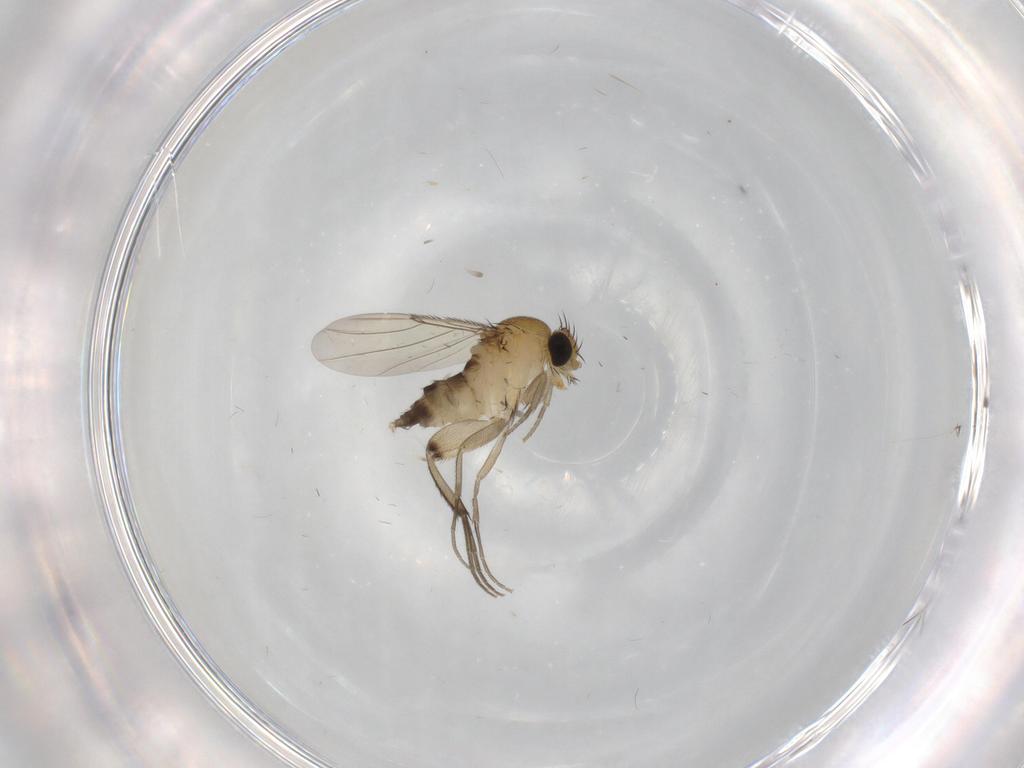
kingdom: Animalia
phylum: Arthropoda
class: Insecta
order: Diptera
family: Phoridae
